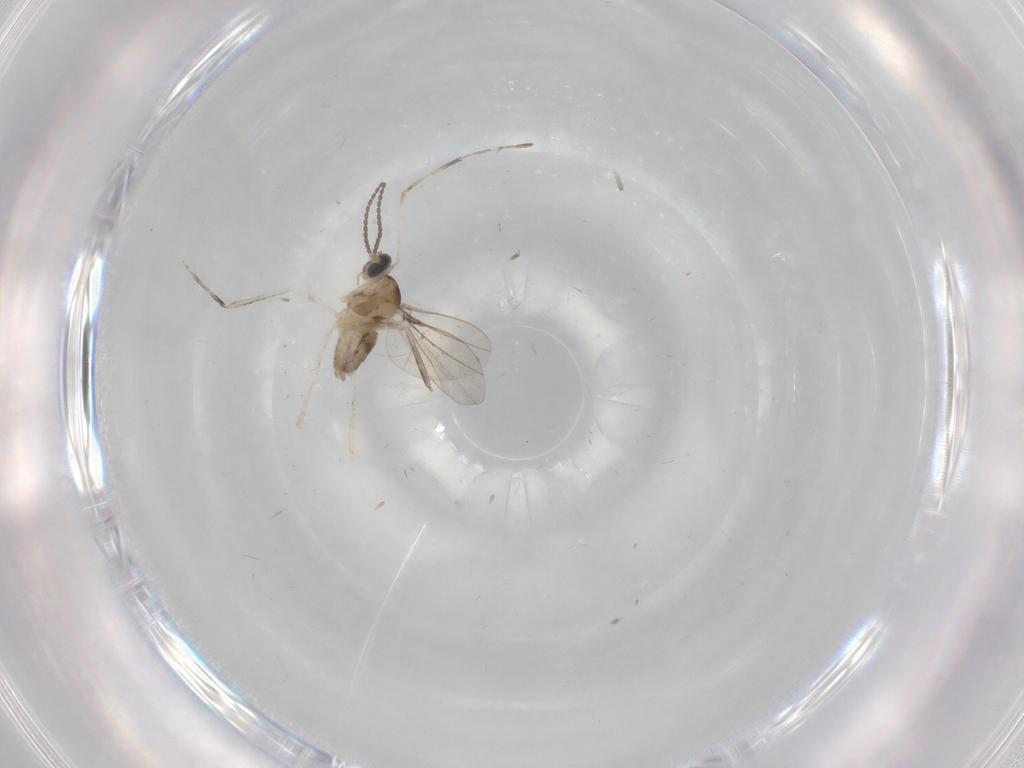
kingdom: Animalia
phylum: Arthropoda
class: Insecta
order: Diptera
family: Cecidomyiidae
